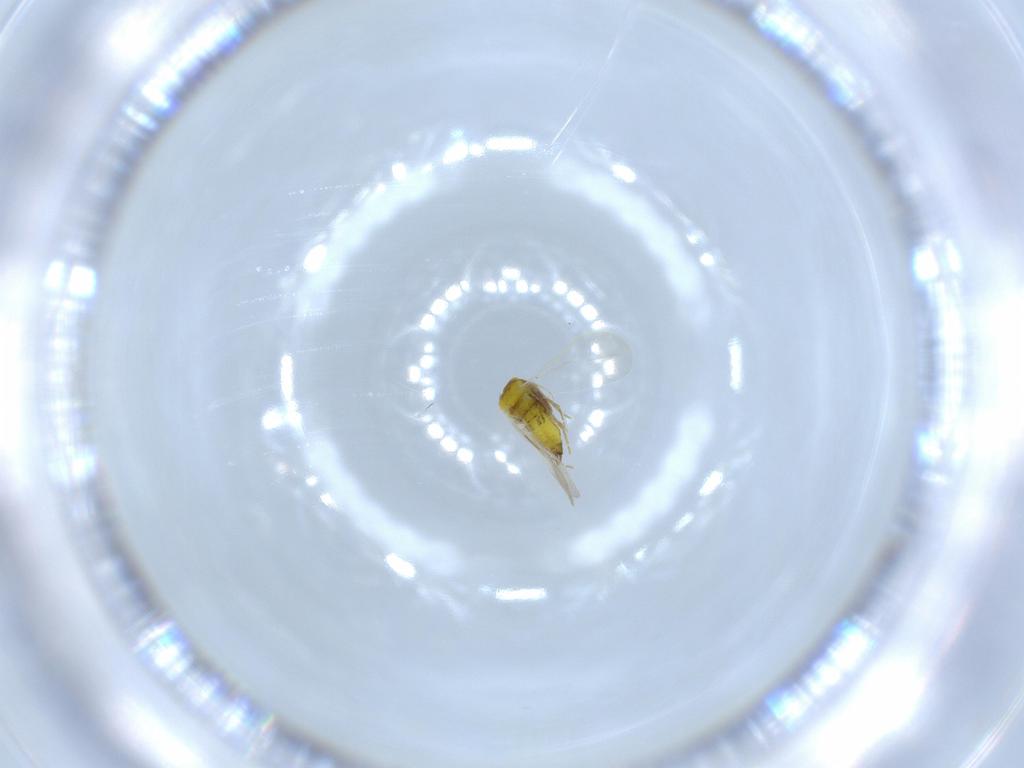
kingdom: Animalia
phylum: Arthropoda
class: Insecta
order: Hemiptera
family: Aleyrodidae
